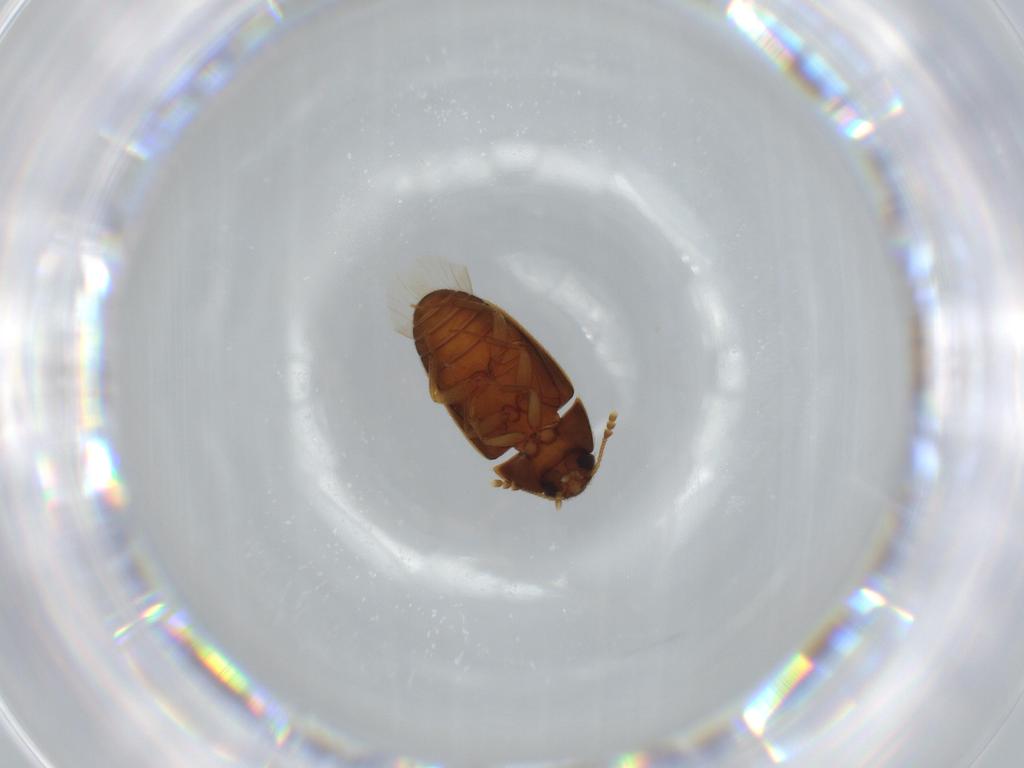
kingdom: Animalia
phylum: Arthropoda
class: Insecta
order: Coleoptera
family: Mycetophagidae
